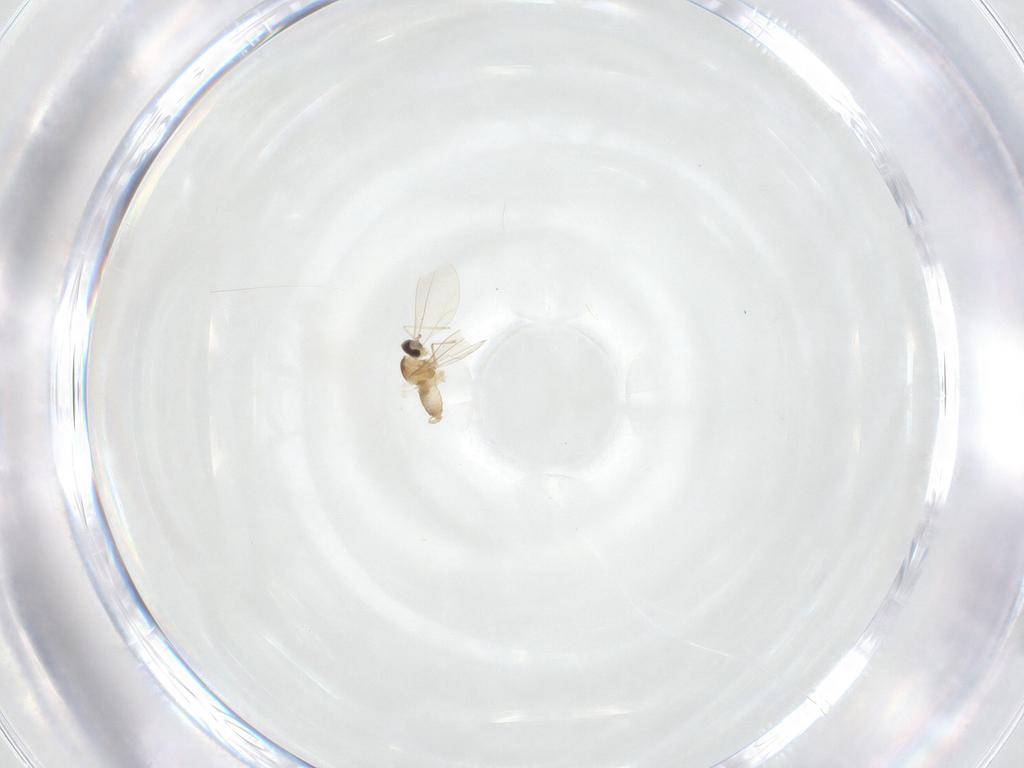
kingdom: Animalia
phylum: Arthropoda
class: Insecta
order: Diptera
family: Cecidomyiidae
